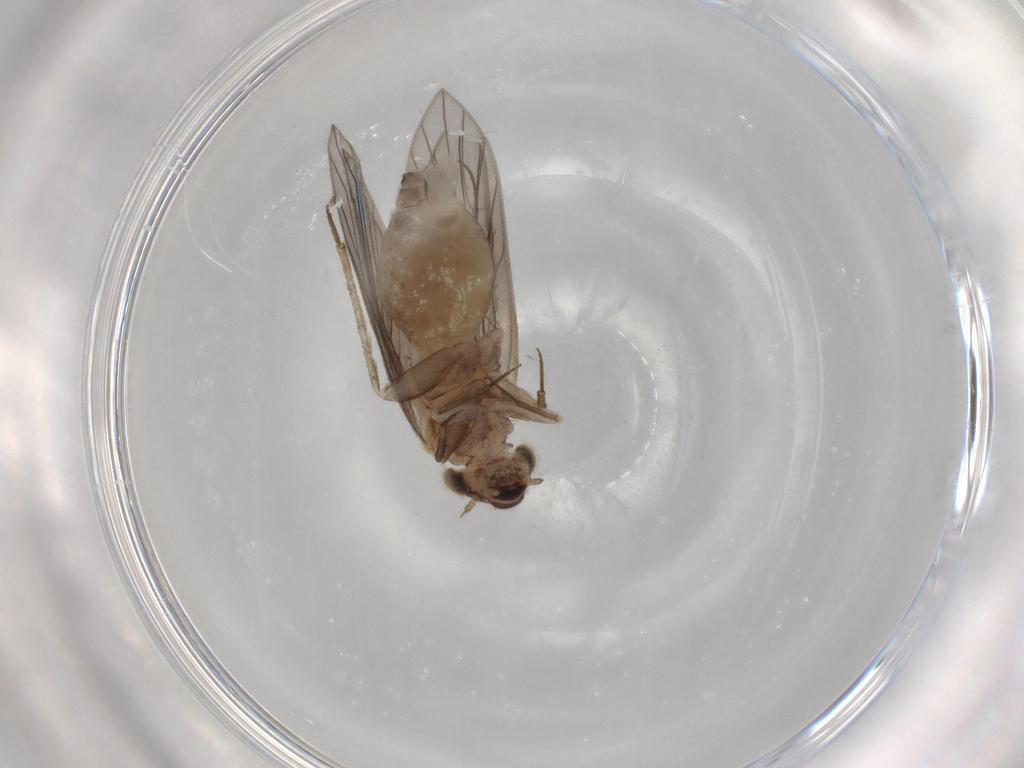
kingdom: Animalia
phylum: Arthropoda
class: Insecta
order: Psocodea
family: Lepidopsocidae
